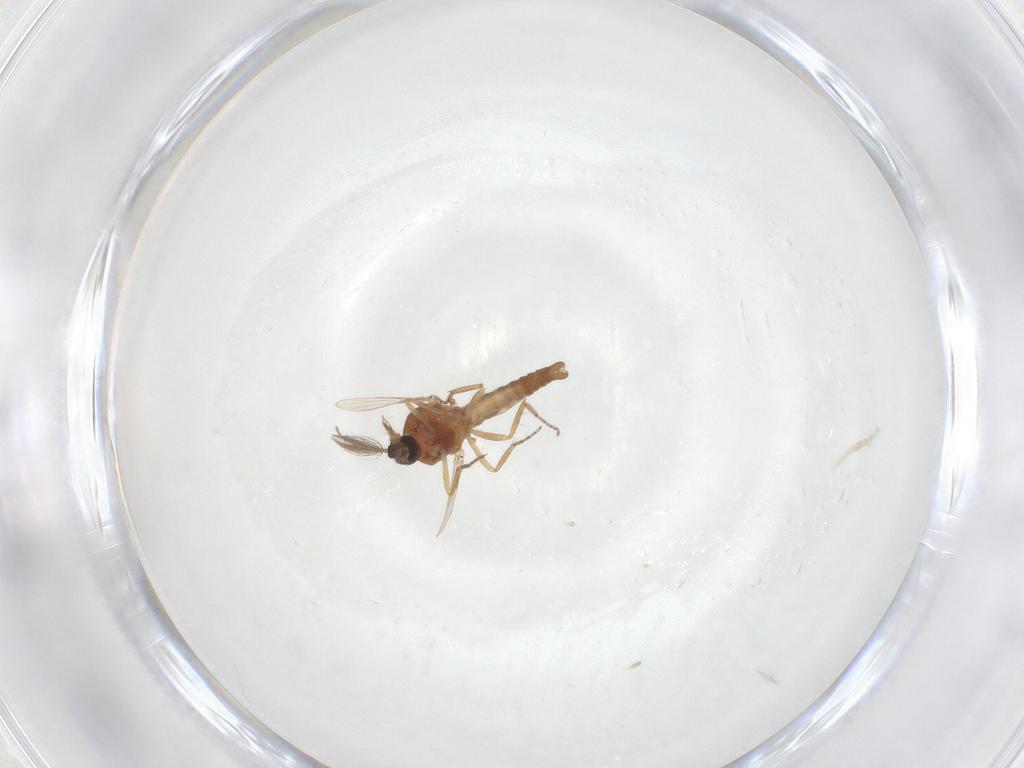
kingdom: Animalia
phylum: Arthropoda
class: Insecta
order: Diptera
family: Ceratopogonidae
